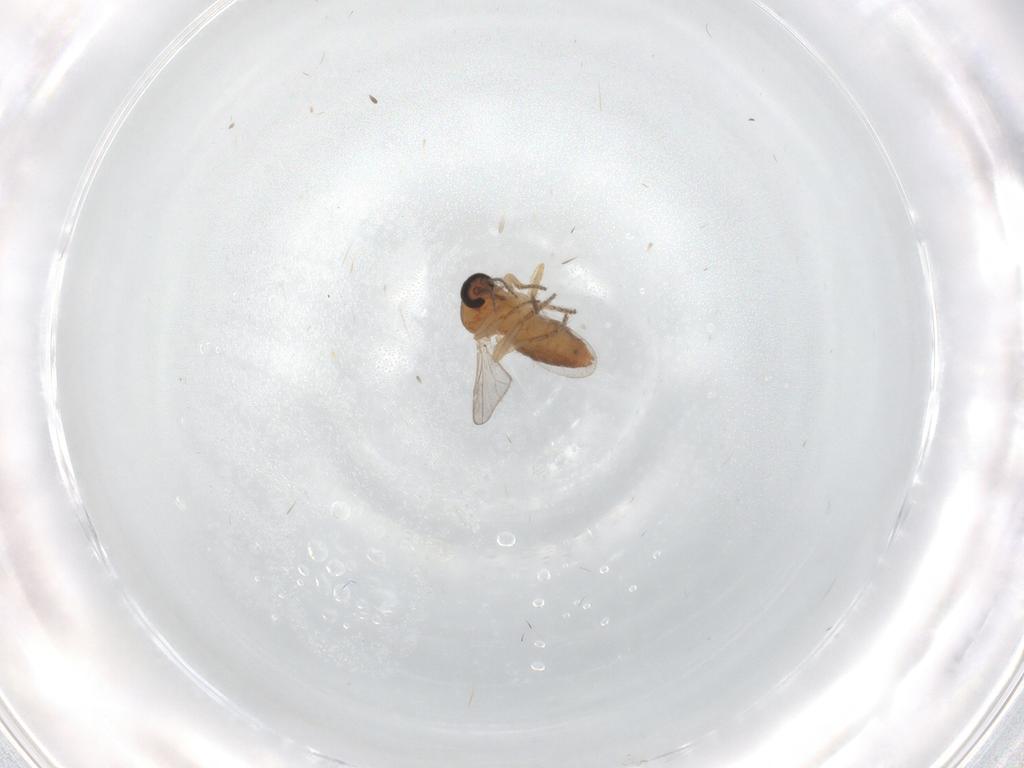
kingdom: Animalia
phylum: Arthropoda
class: Insecta
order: Diptera
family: Ceratopogonidae
